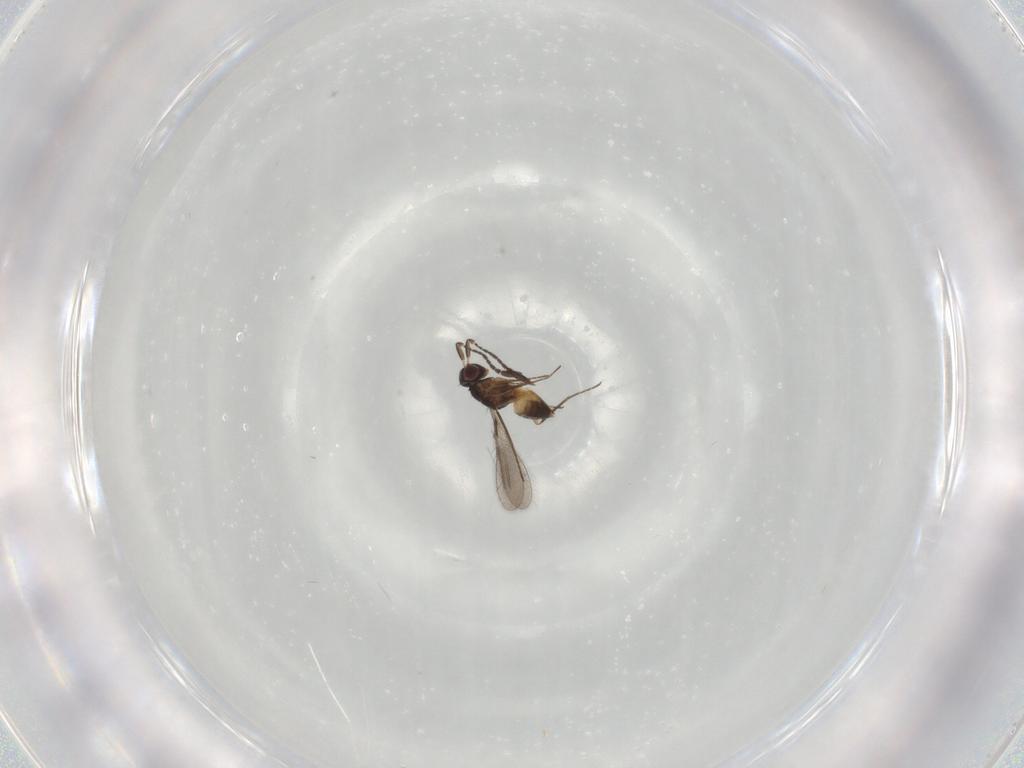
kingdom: Animalia
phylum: Arthropoda
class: Insecta
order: Hymenoptera
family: Mymaridae
